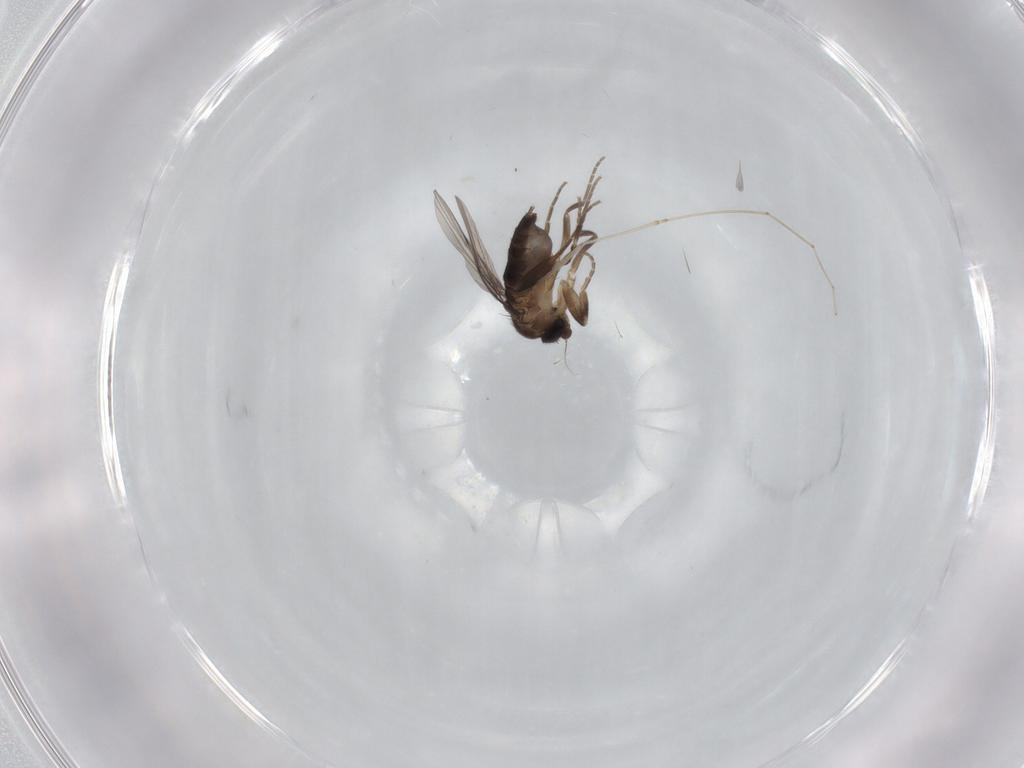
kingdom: Animalia
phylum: Arthropoda
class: Insecta
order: Diptera
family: Cecidomyiidae
